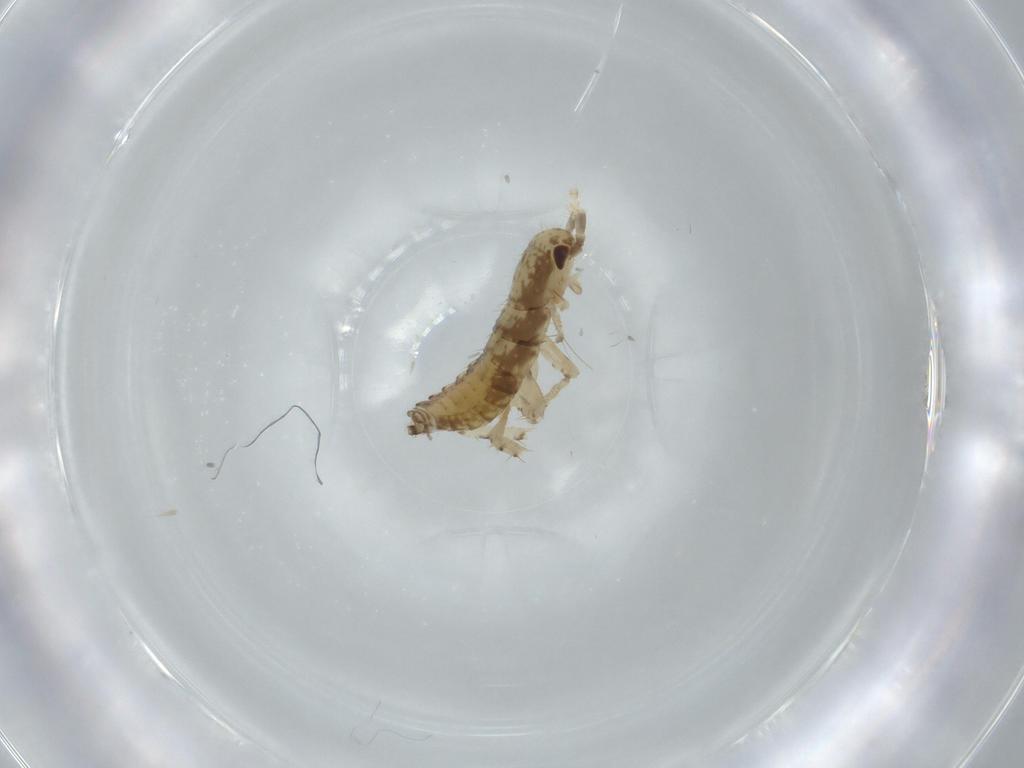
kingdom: Animalia
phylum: Arthropoda
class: Insecta
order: Blattodea
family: Ectobiidae
